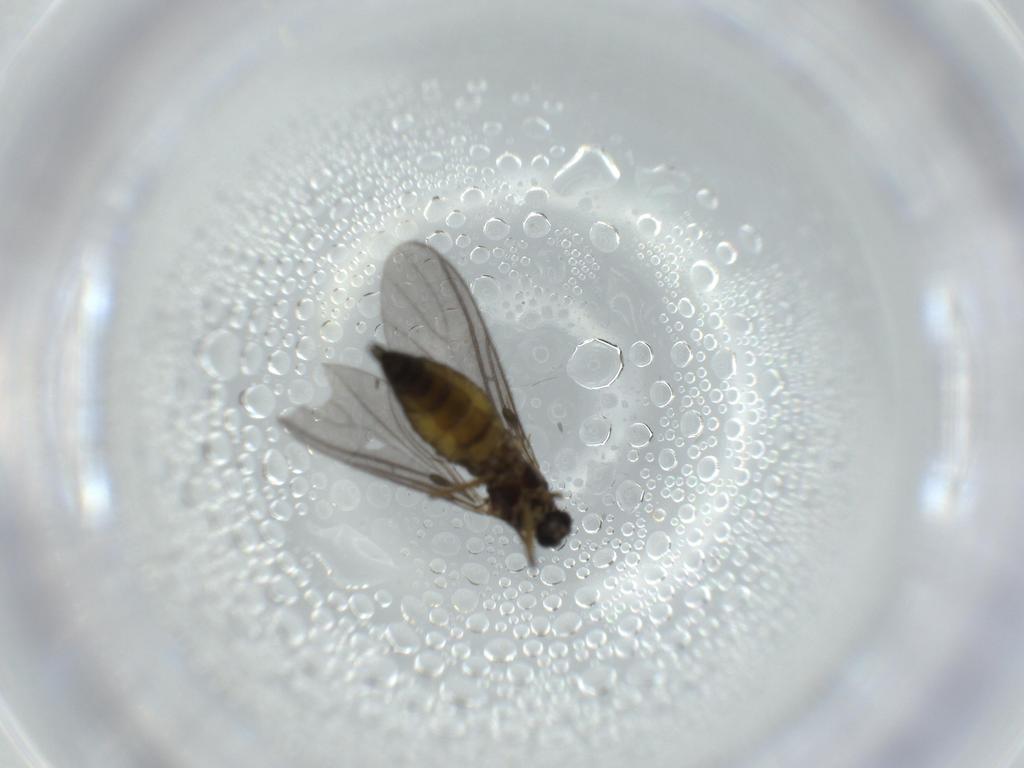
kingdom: Animalia
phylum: Arthropoda
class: Insecta
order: Diptera
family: Sciaridae
